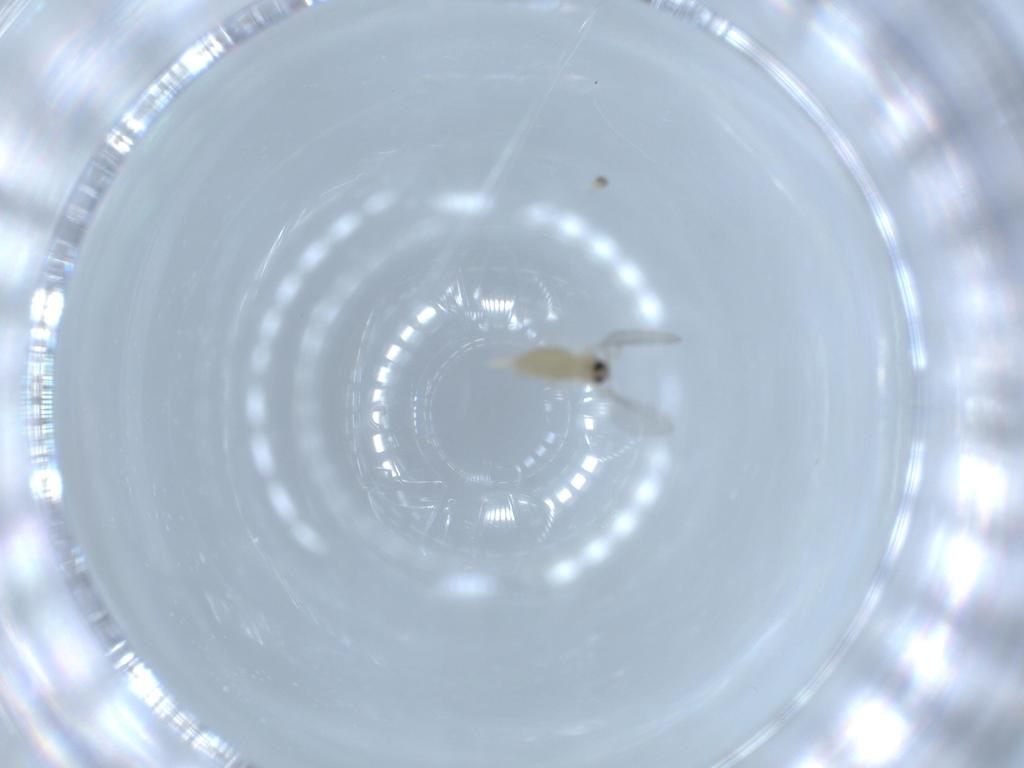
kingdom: Animalia
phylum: Arthropoda
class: Insecta
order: Diptera
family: Cecidomyiidae
